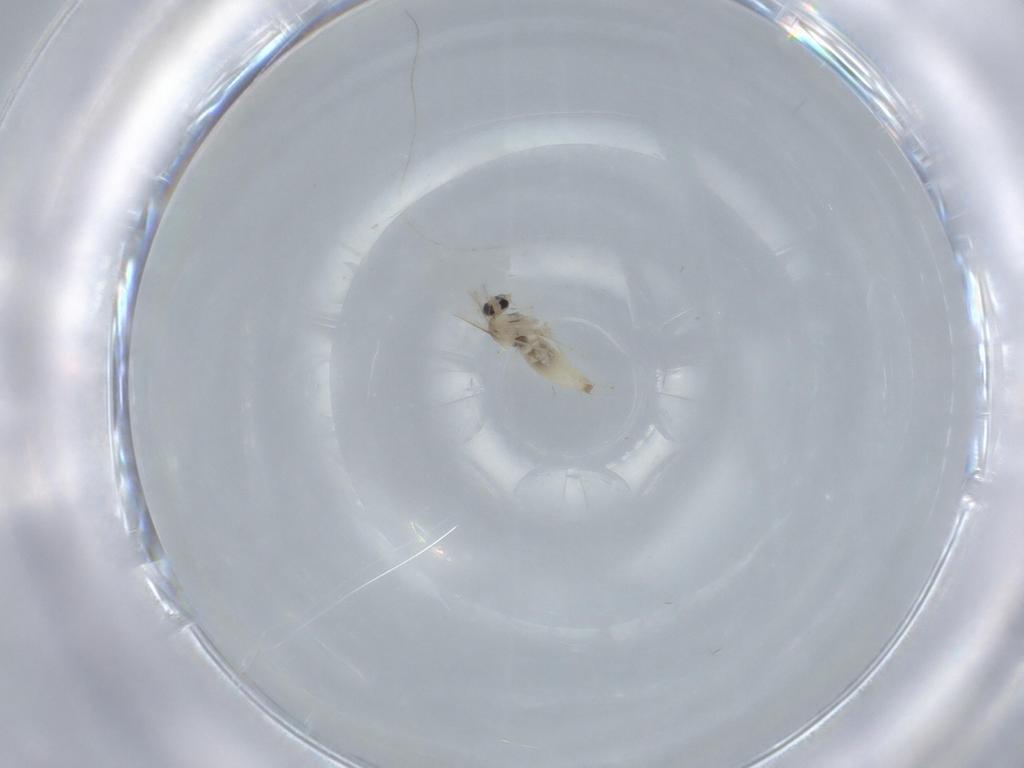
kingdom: Animalia
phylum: Arthropoda
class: Insecta
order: Diptera
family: Cecidomyiidae
